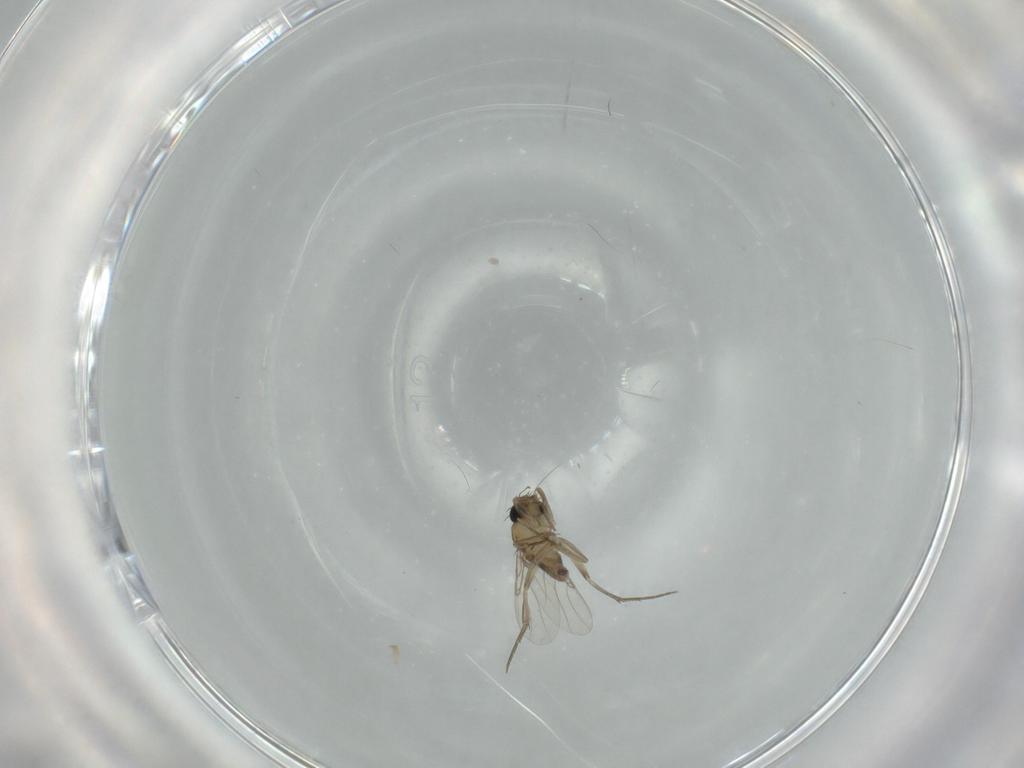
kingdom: Animalia
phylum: Arthropoda
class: Insecta
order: Diptera
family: Phoridae
